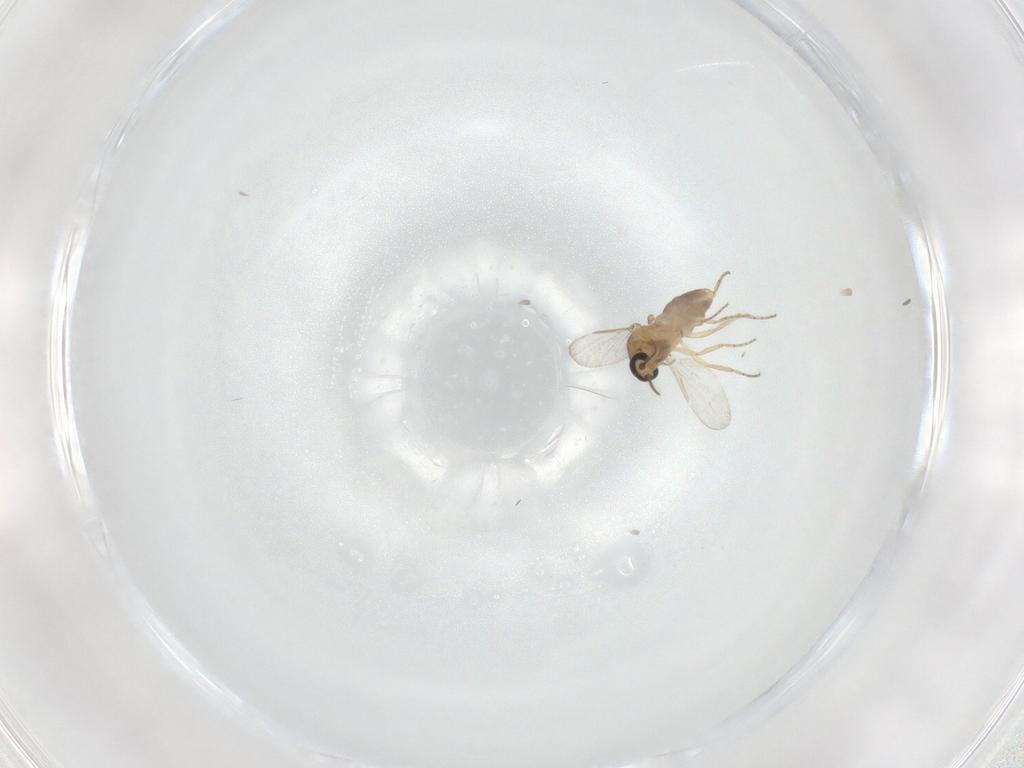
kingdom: Animalia
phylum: Arthropoda
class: Insecta
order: Diptera
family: Ceratopogonidae
